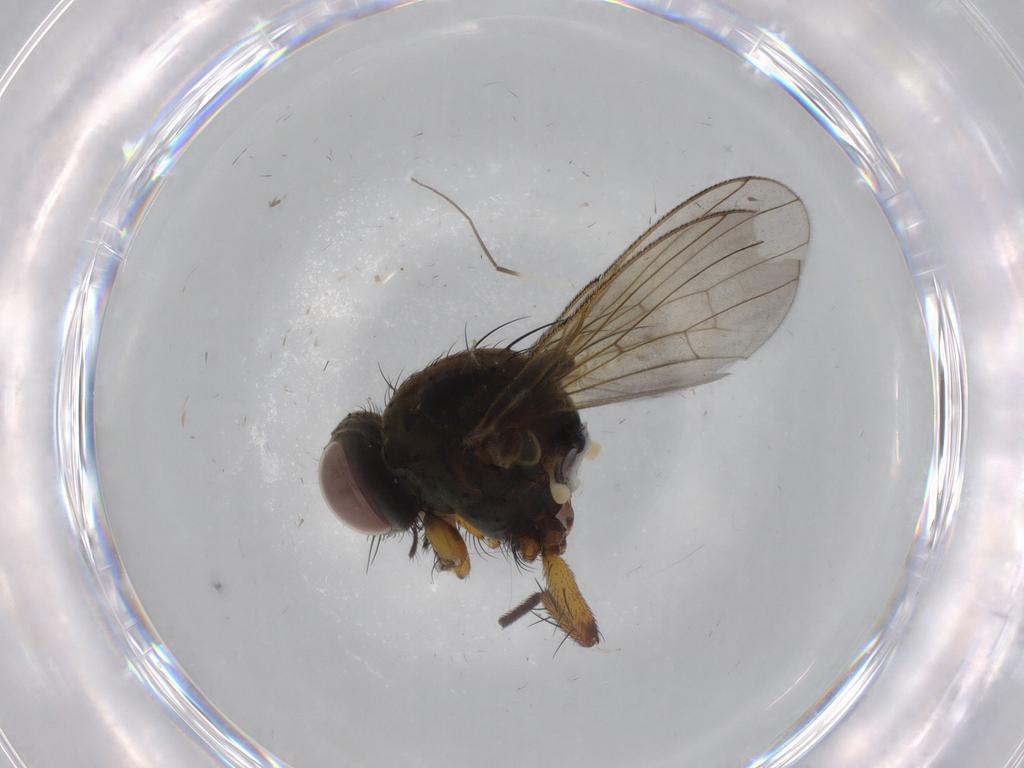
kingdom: Animalia
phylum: Arthropoda
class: Insecta
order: Diptera
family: Muscidae
